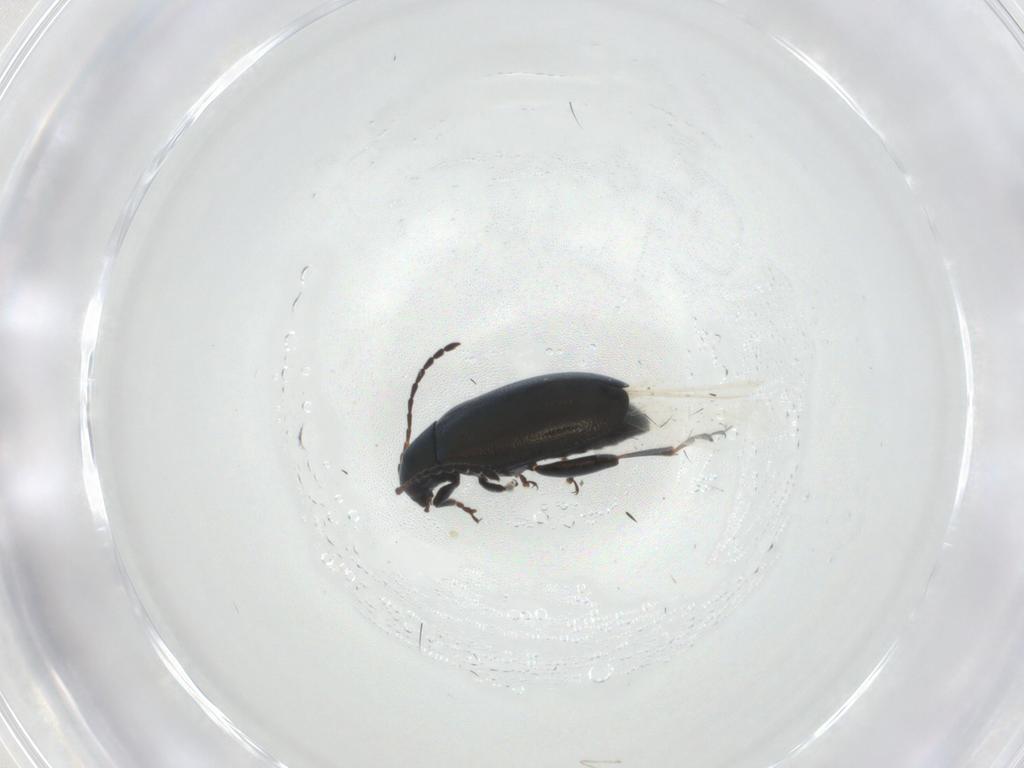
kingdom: Animalia
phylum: Arthropoda
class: Insecta
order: Coleoptera
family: Chrysomelidae
